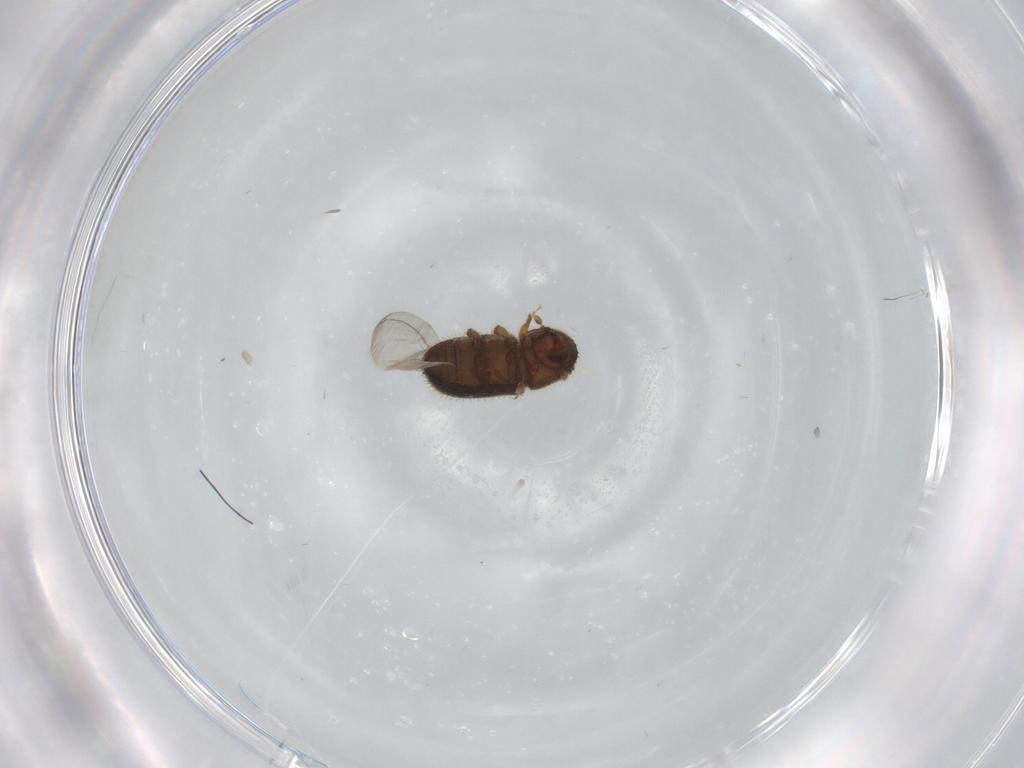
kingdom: Animalia
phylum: Arthropoda
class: Insecta
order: Coleoptera
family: Curculionidae
